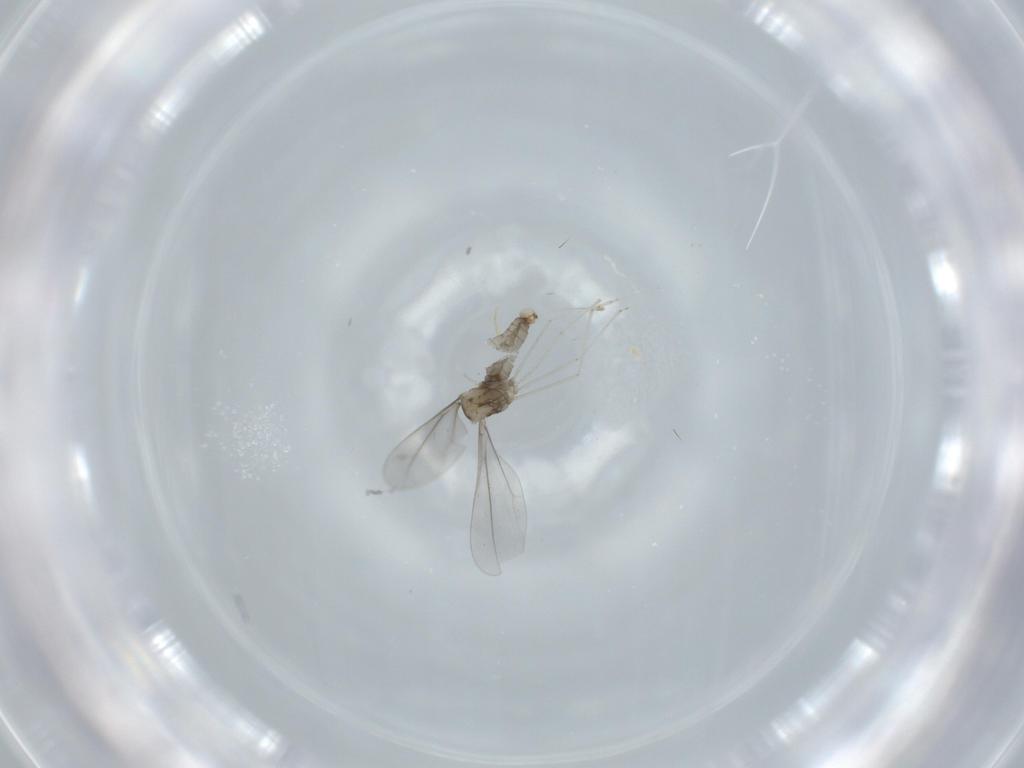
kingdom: Animalia
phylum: Arthropoda
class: Insecta
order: Diptera
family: Cecidomyiidae
